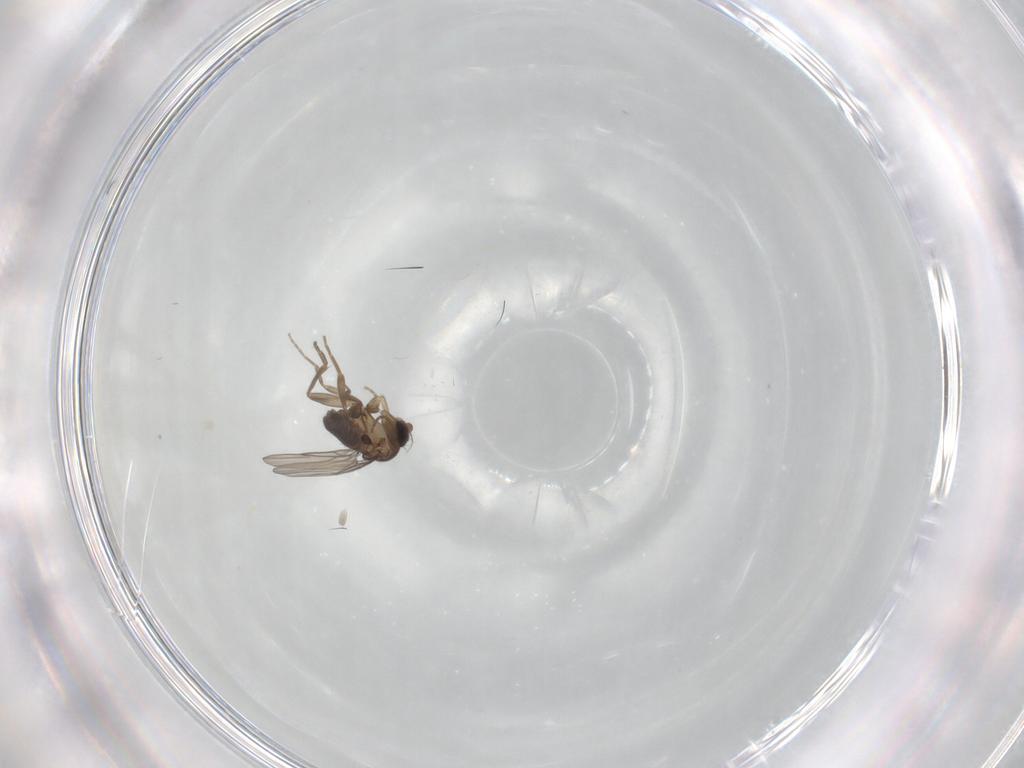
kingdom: Animalia
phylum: Arthropoda
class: Insecta
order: Diptera
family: Phoridae
